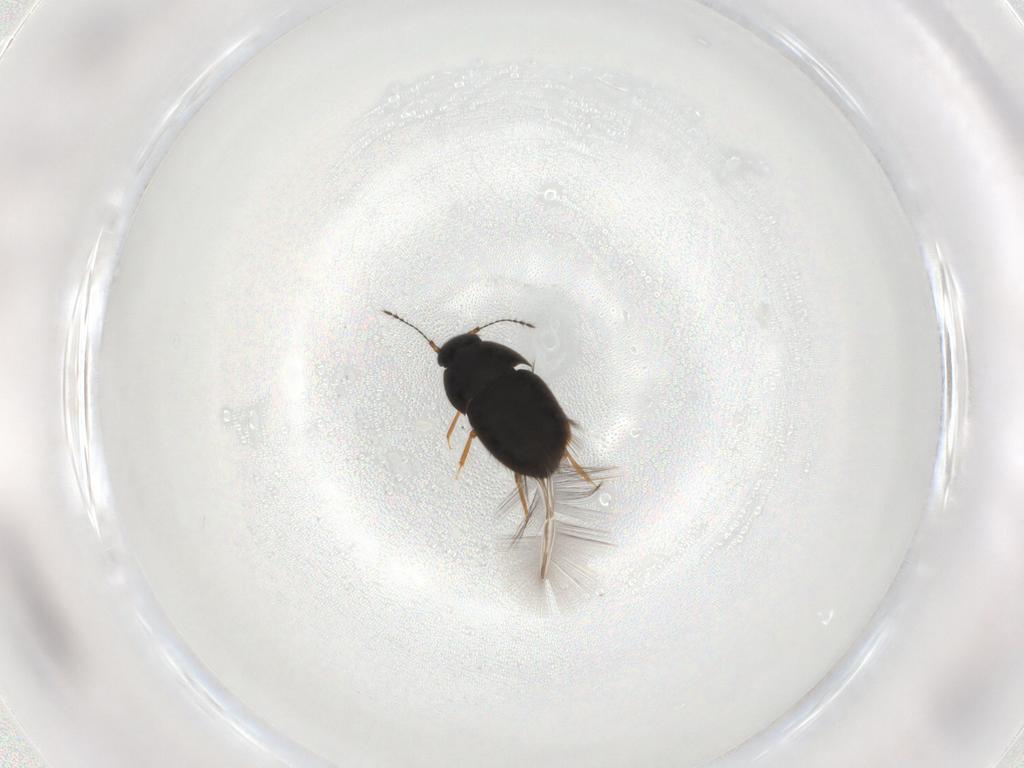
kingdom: Animalia
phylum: Arthropoda
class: Insecta
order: Coleoptera
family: Ptiliidae
